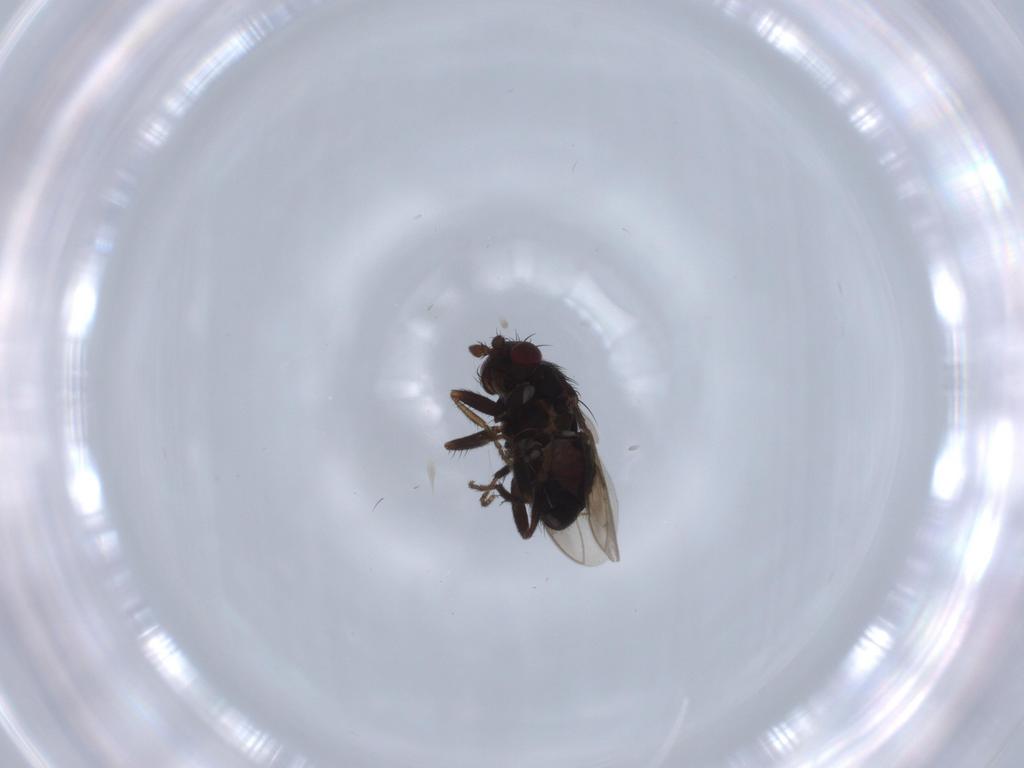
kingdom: Animalia
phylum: Arthropoda
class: Insecta
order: Diptera
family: Sphaeroceridae
